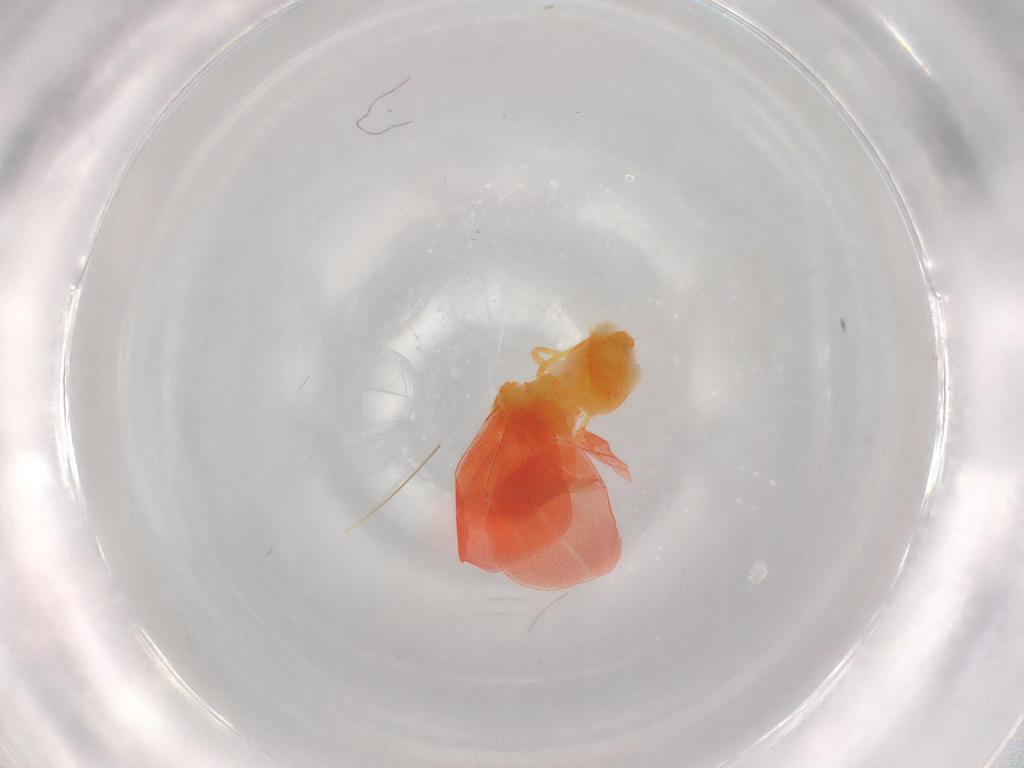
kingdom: Animalia
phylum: Arthropoda
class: Insecta
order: Hemiptera
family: Aleyrodidae
